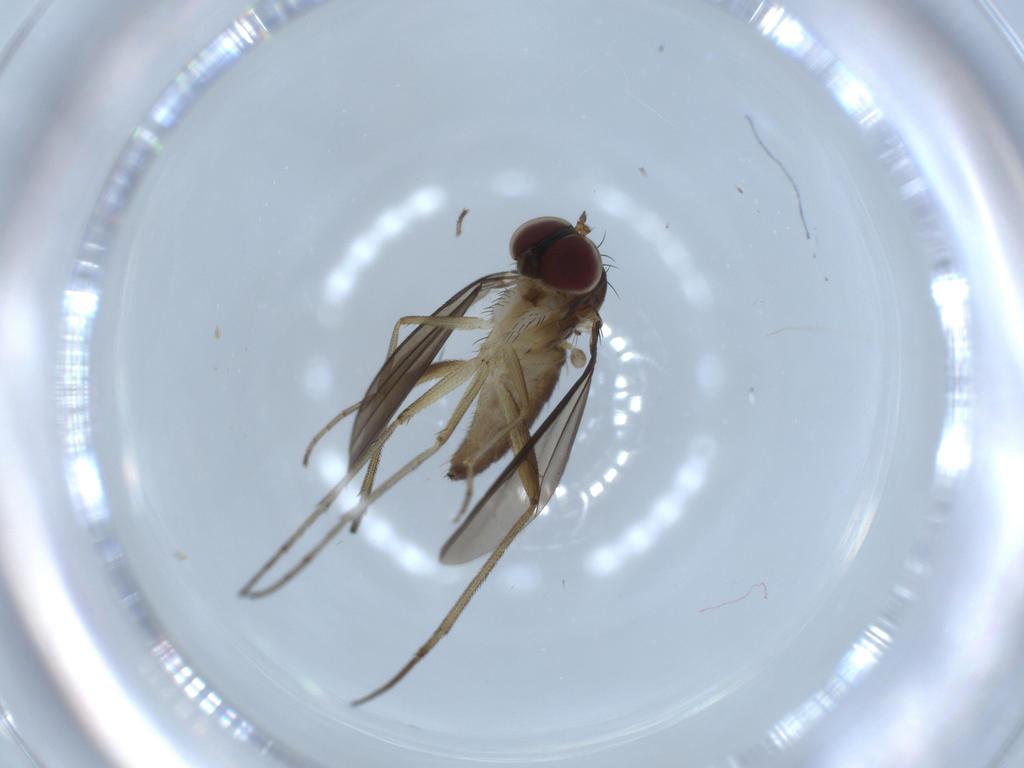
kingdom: Animalia
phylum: Arthropoda
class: Insecta
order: Diptera
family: Dolichopodidae
